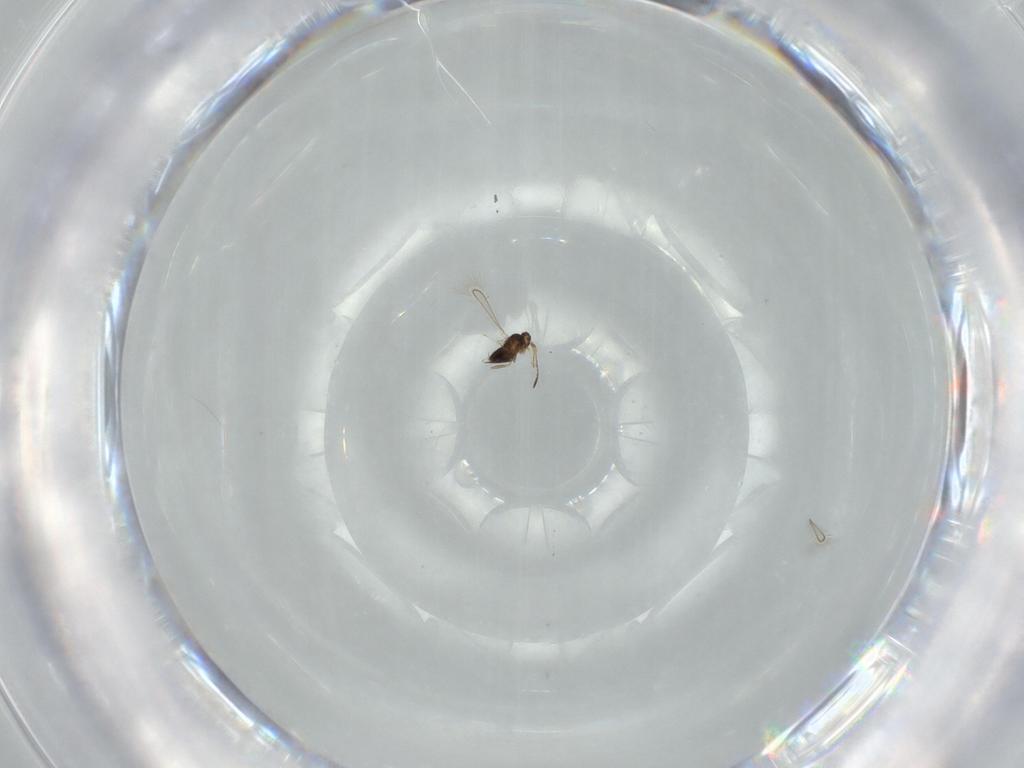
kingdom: Animalia
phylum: Arthropoda
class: Insecta
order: Hymenoptera
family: Ichneumonidae
